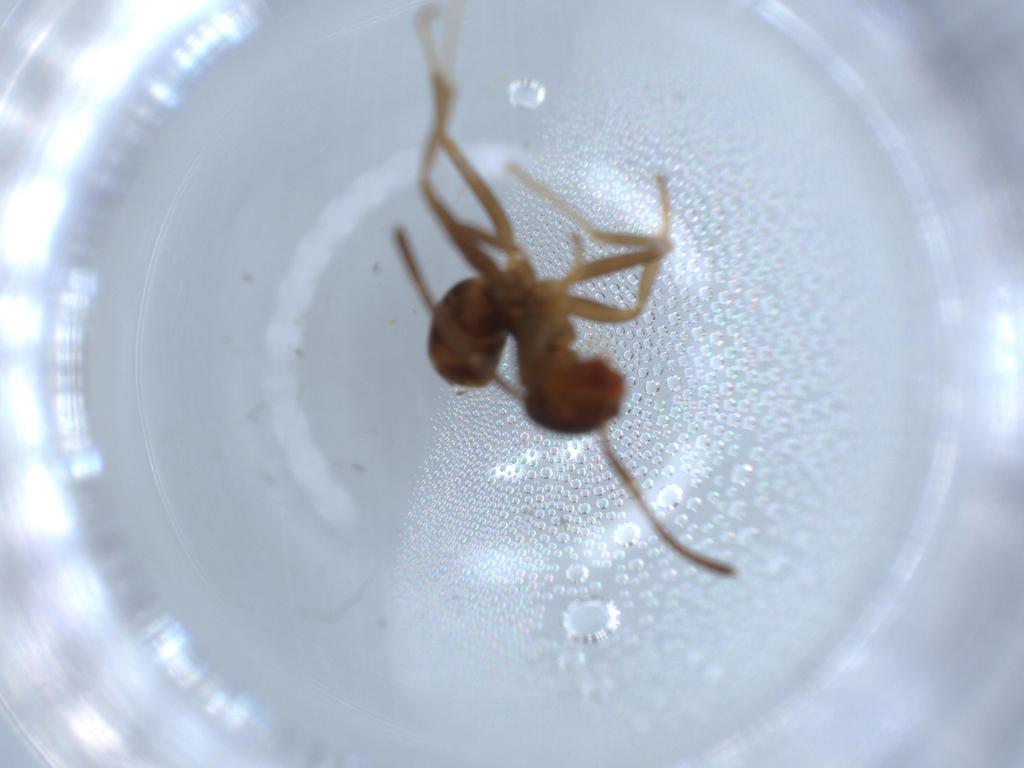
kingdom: Animalia
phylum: Arthropoda
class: Insecta
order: Hymenoptera
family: Formicidae
